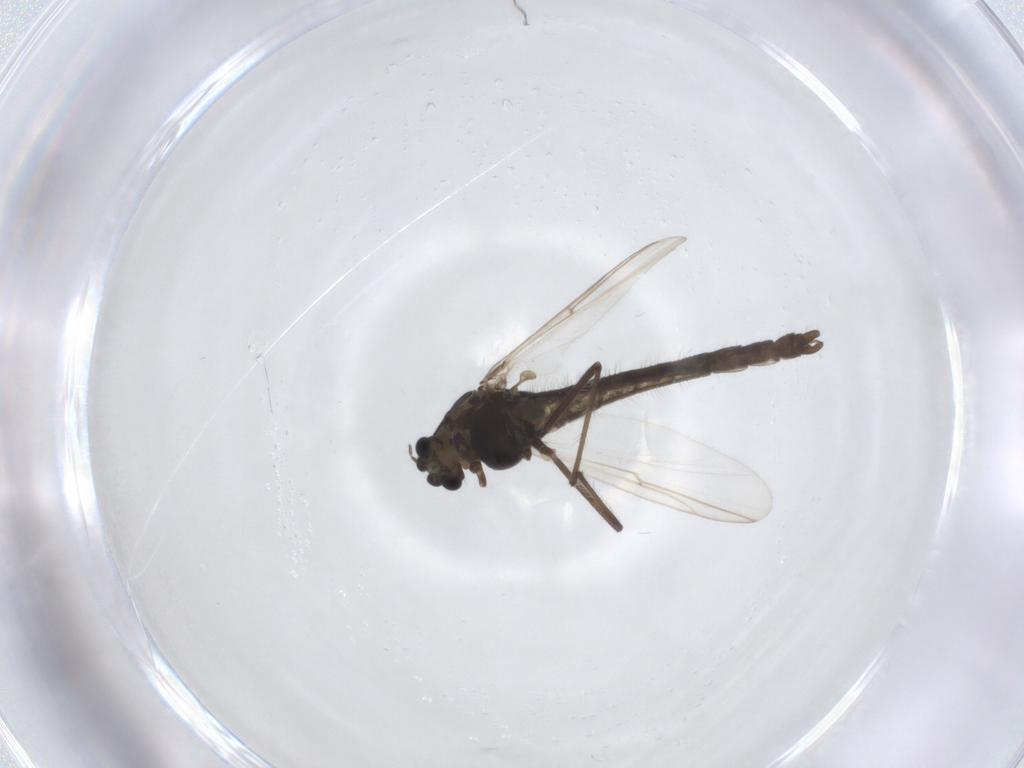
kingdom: Animalia
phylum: Arthropoda
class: Insecta
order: Diptera
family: Chironomidae
